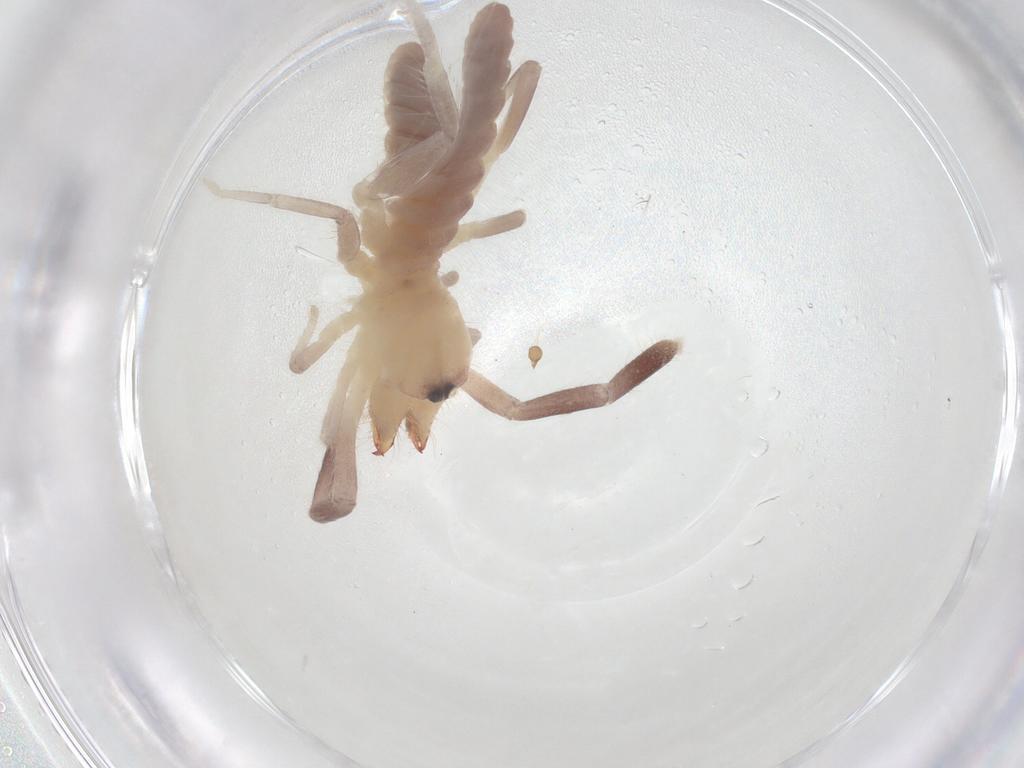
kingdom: Animalia
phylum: Arthropoda
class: Arachnida
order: Solifugae
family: Ammotrechidae
